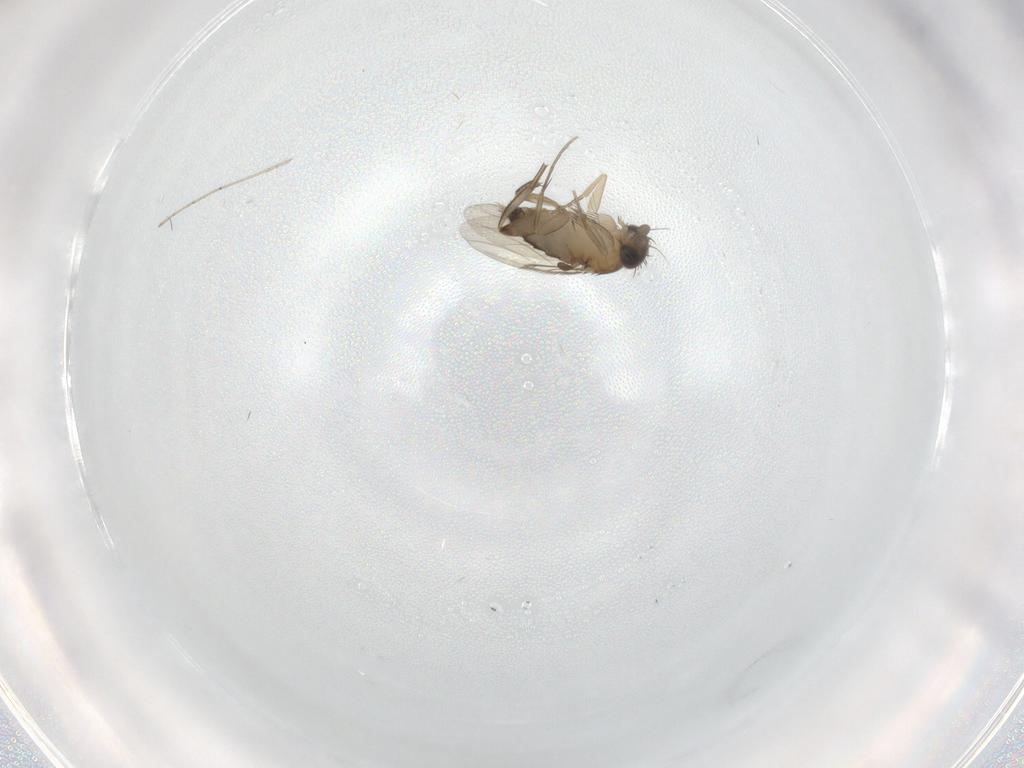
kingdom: Animalia
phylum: Arthropoda
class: Insecta
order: Diptera
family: Phoridae
